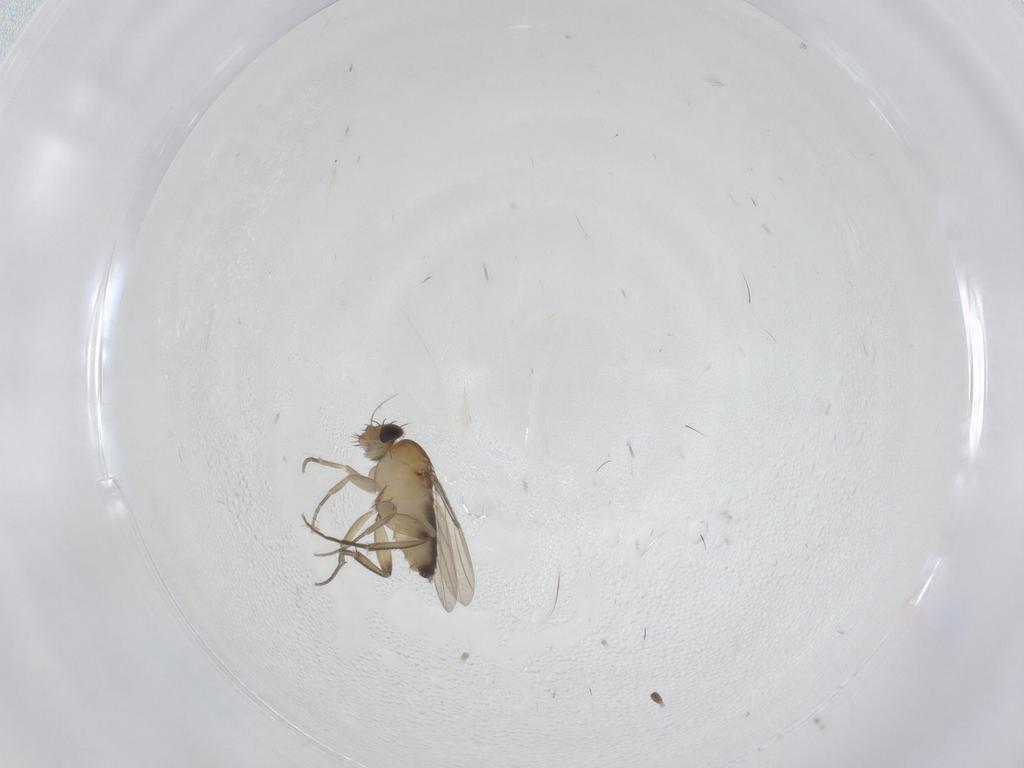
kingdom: Animalia
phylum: Arthropoda
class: Insecta
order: Diptera
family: Phoridae
